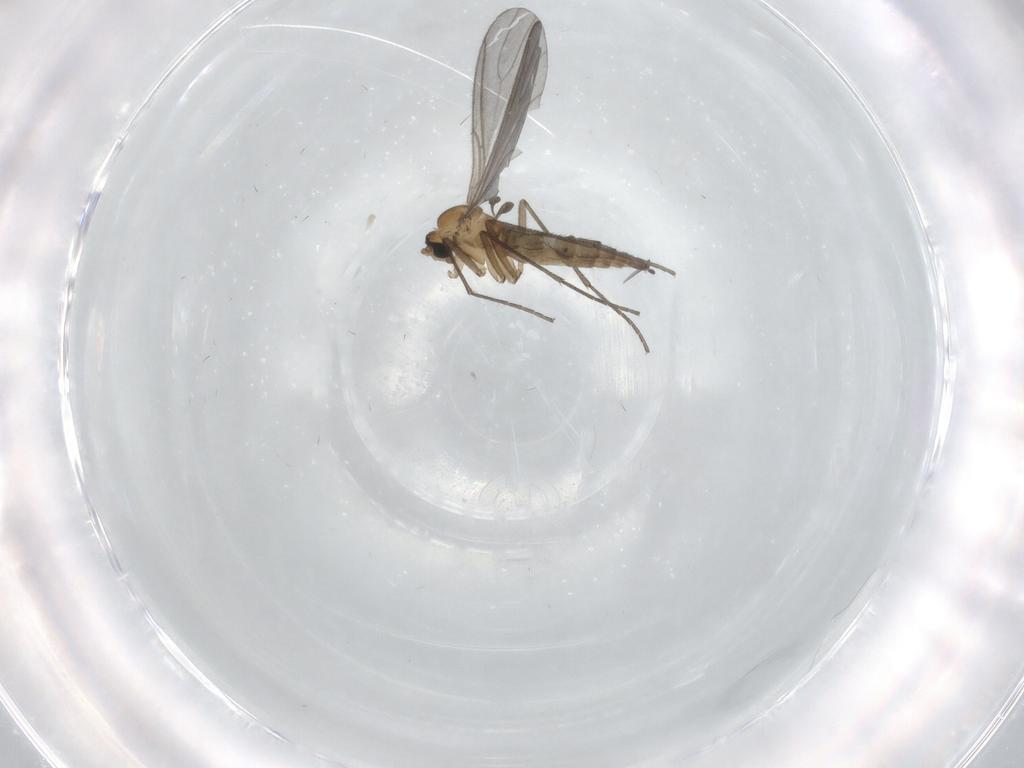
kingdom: Animalia
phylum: Arthropoda
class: Insecta
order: Diptera
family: Sciaridae
